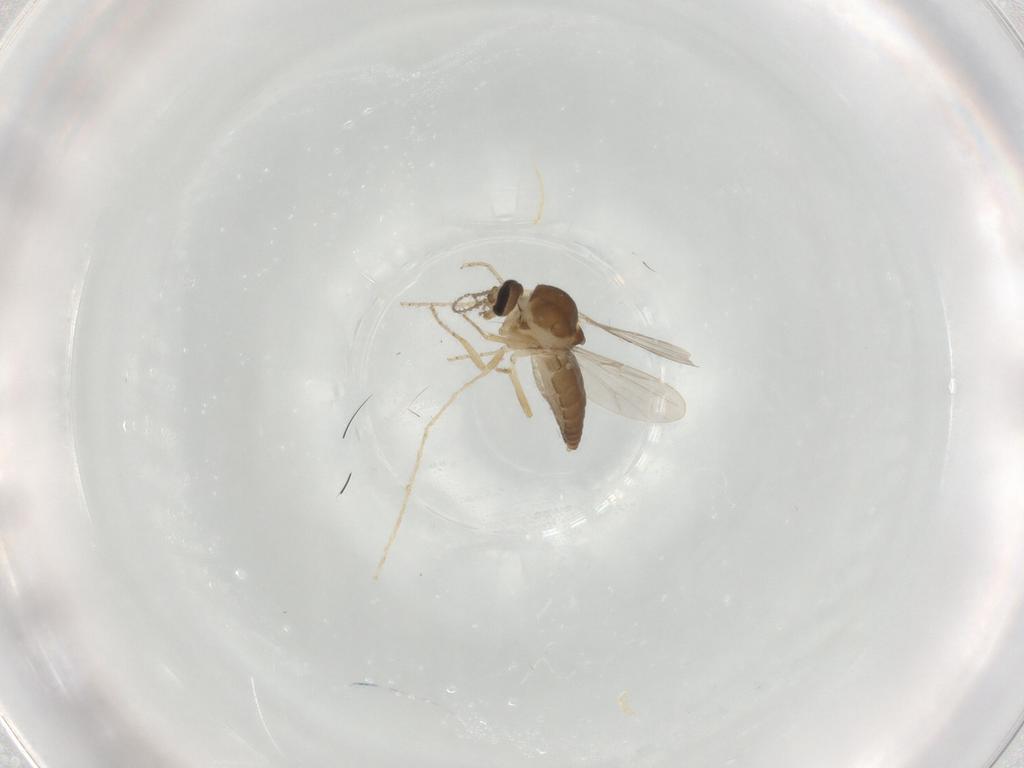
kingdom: Animalia
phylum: Arthropoda
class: Insecta
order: Diptera
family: Ceratopogonidae
